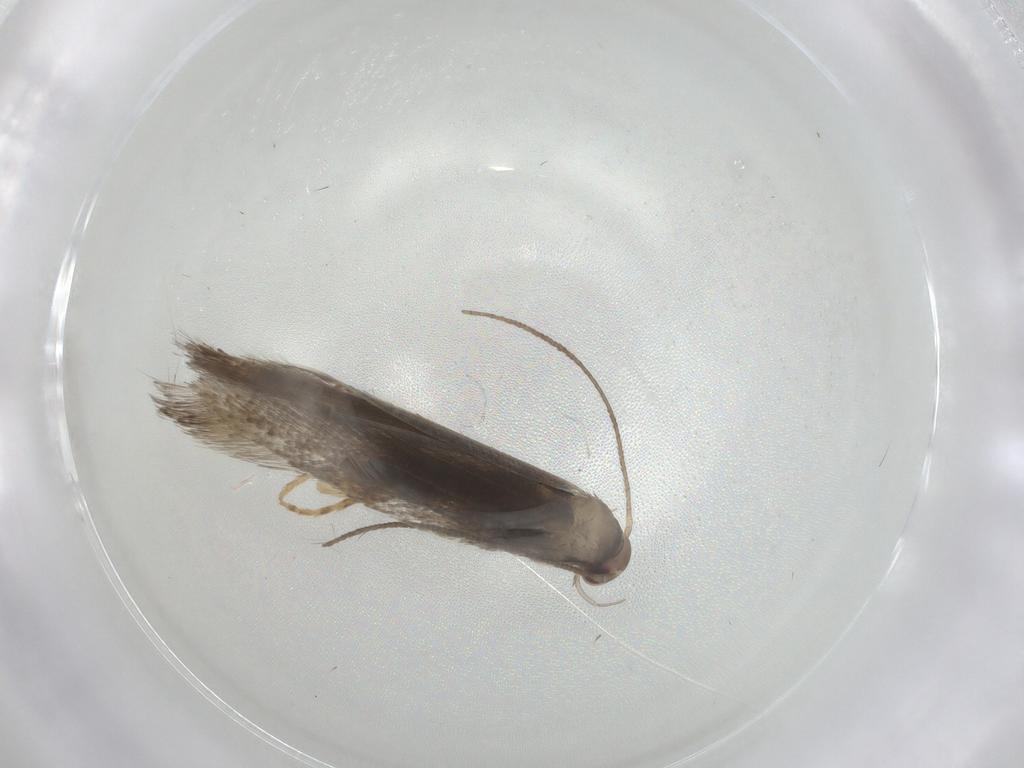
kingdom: Animalia
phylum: Arthropoda
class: Insecta
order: Lepidoptera
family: Elachistidae
